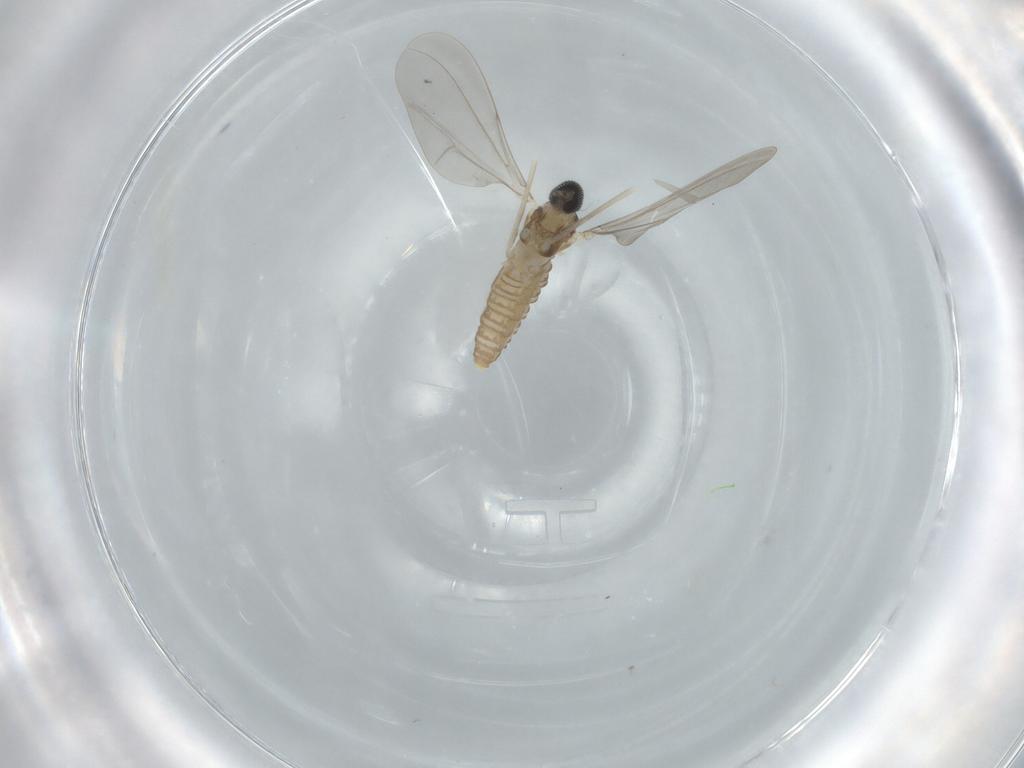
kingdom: Animalia
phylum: Arthropoda
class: Insecta
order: Diptera
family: Cecidomyiidae
